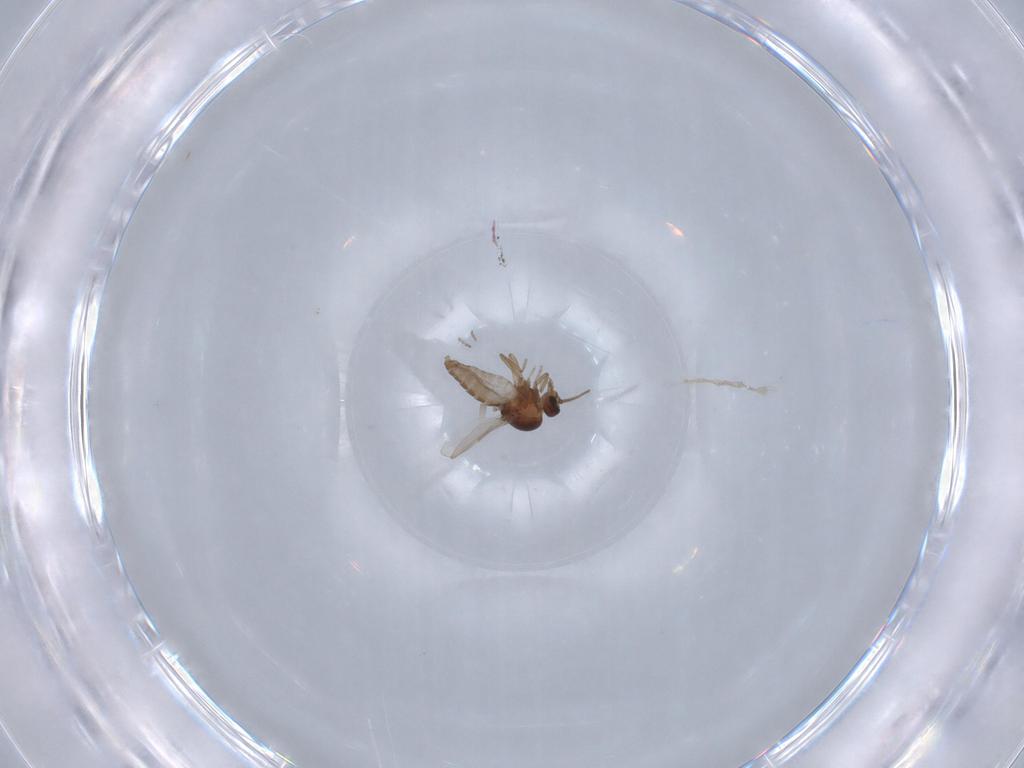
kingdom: Animalia
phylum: Arthropoda
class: Insecta
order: Diptera
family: Ceratopogonidae
